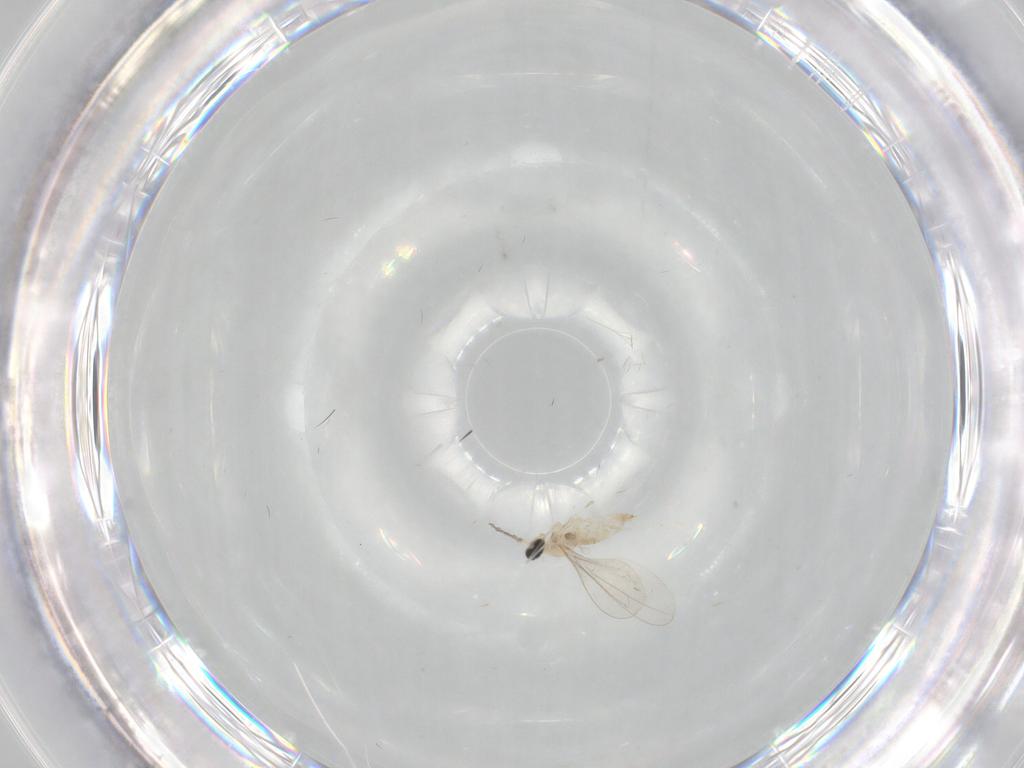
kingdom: Animalia
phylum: Arthropoda
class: Insecta
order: Diptera
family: Cecidomyiidae
